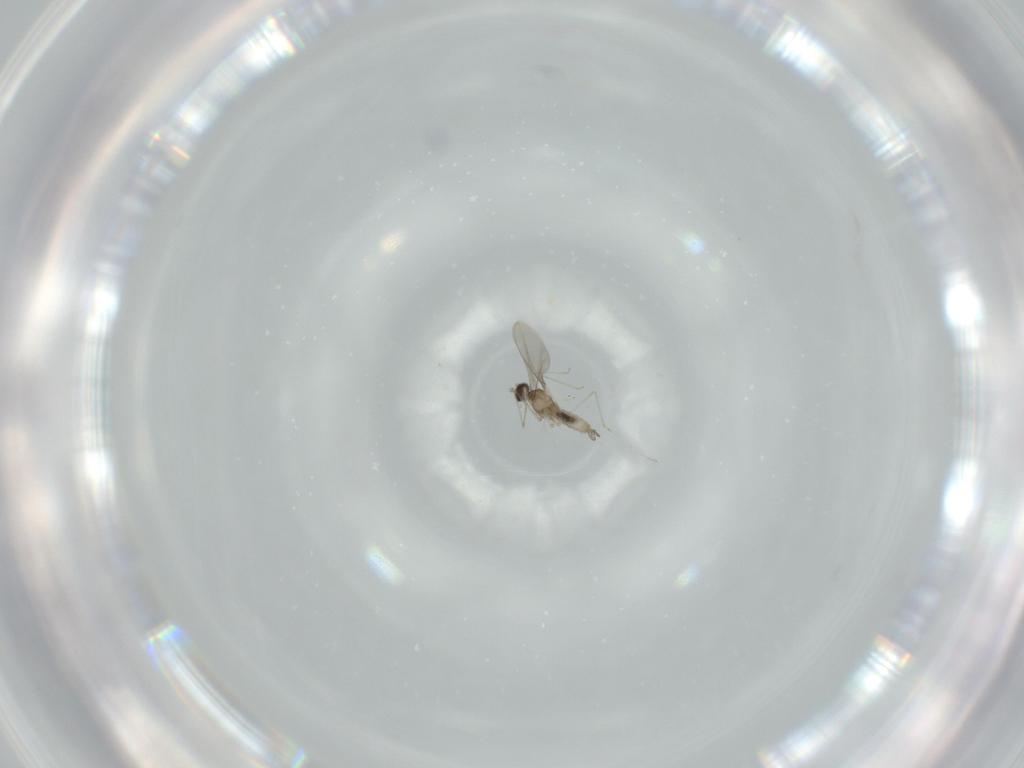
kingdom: Animalia
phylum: Arthropoda
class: Insecta
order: Diptera
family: Cecidomyiidae
